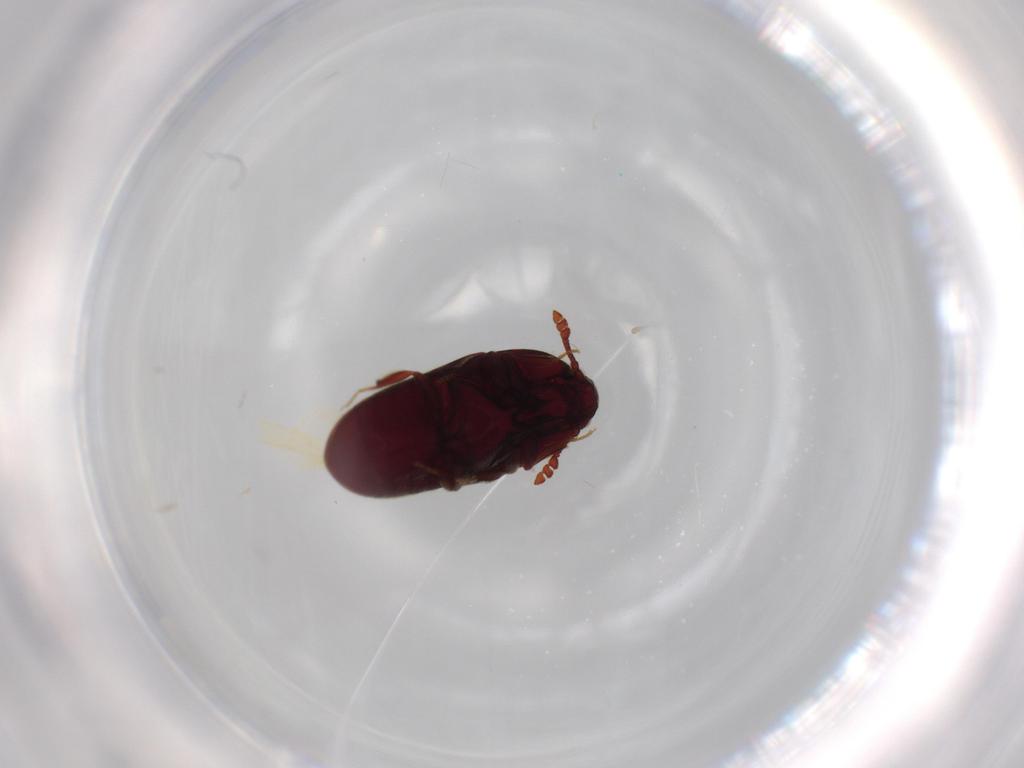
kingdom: Animalia
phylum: Arthropoda
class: Insecta
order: Coleoptera
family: Throscidae
